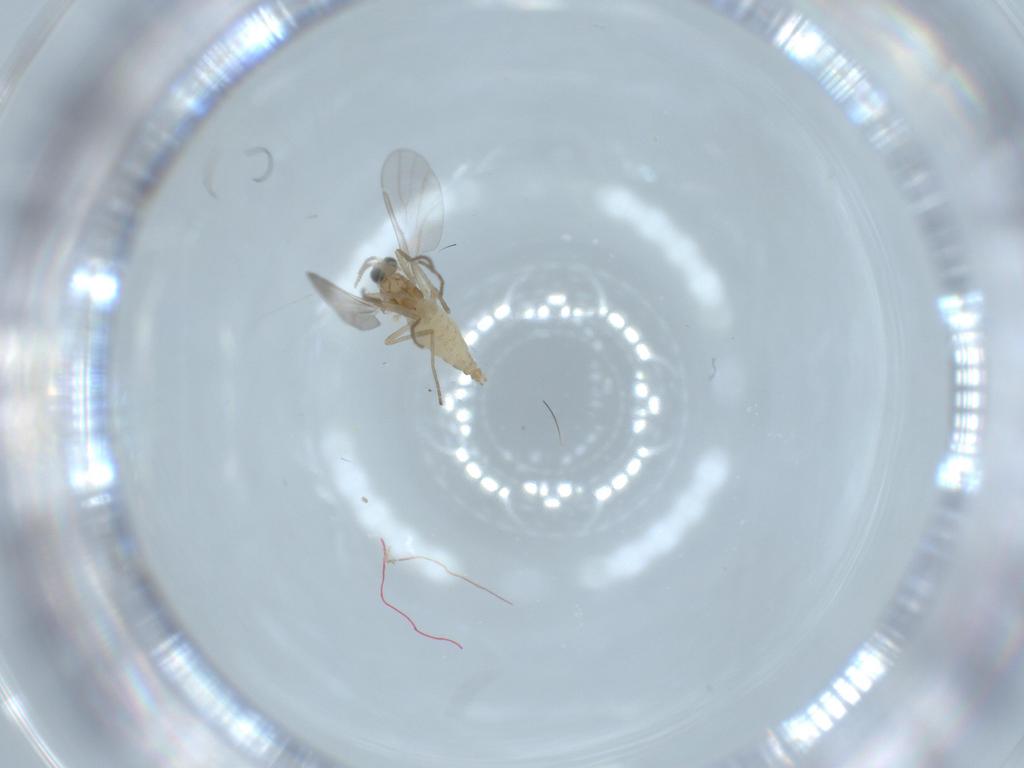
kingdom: Animalia
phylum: Arthropoda
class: Insecta
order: Diptera
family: Cecidomyiidae
